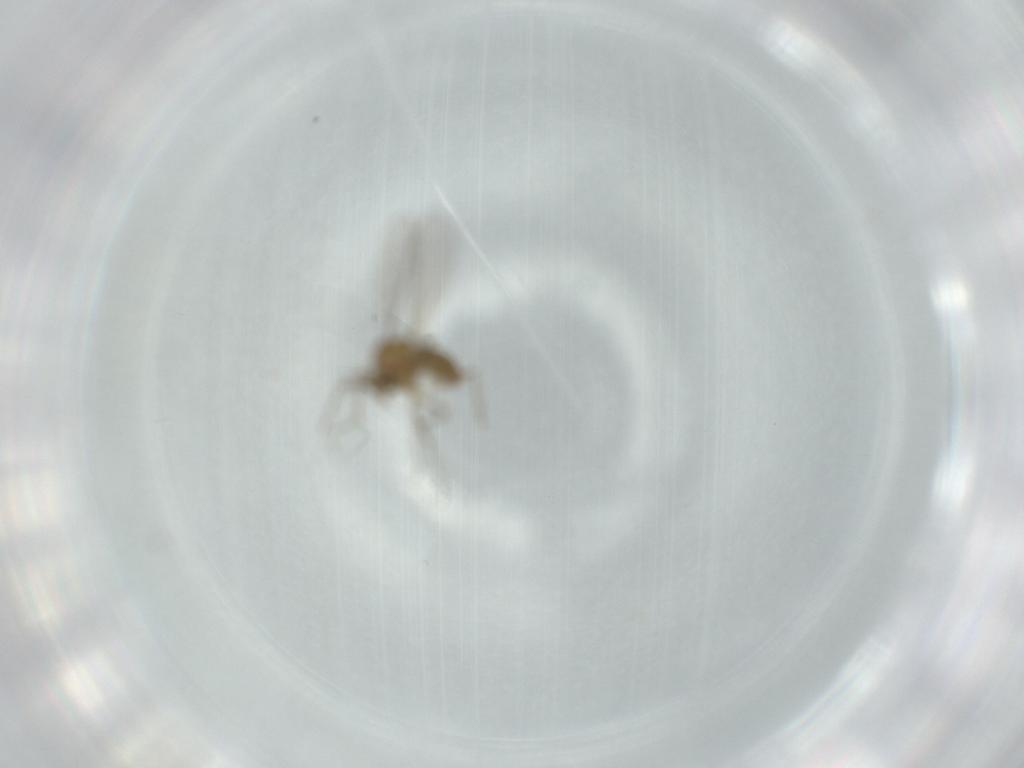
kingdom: Animalia
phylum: Arthropoda
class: Insecta
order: Diptera
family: Chironomidae
